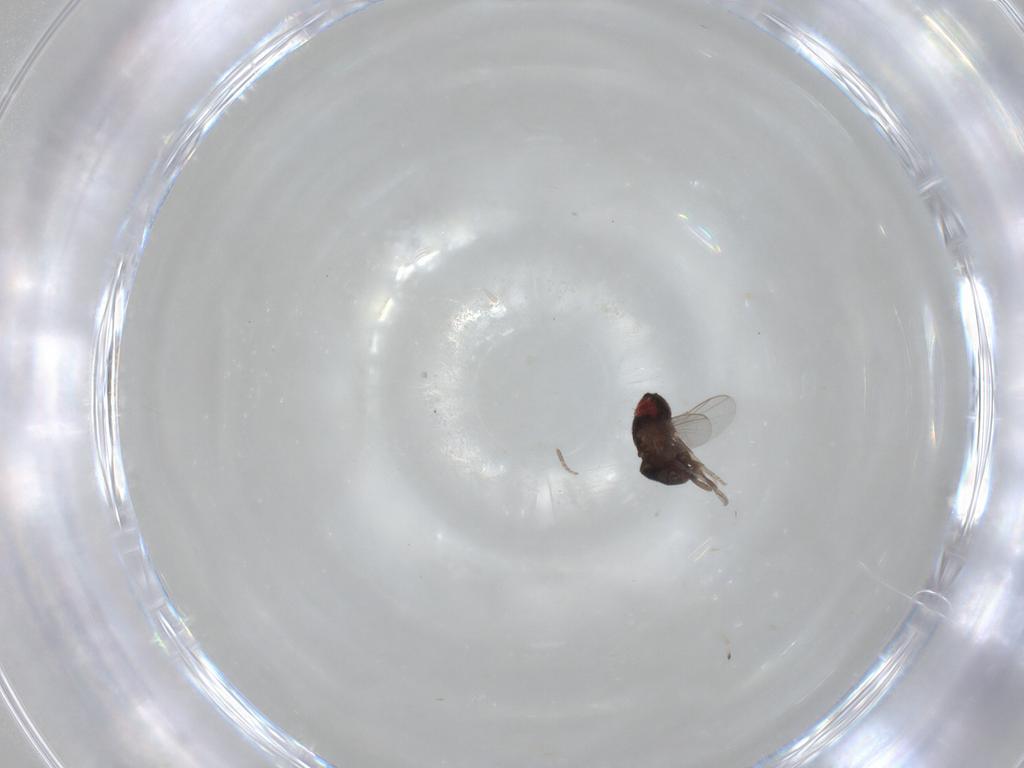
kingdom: Animalia
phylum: Arthropoda
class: Insecta
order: Diptera
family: Cryptochetidae
